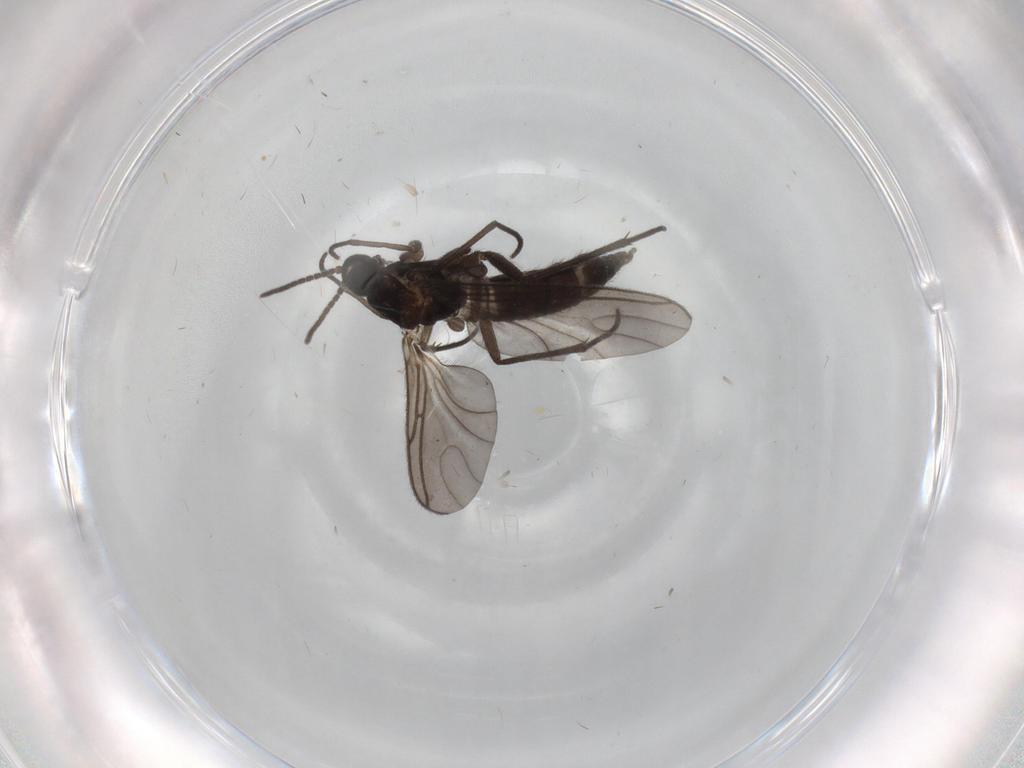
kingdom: Animalia
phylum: Arthropoda
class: Insecta
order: Diptera
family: Sciaridae
